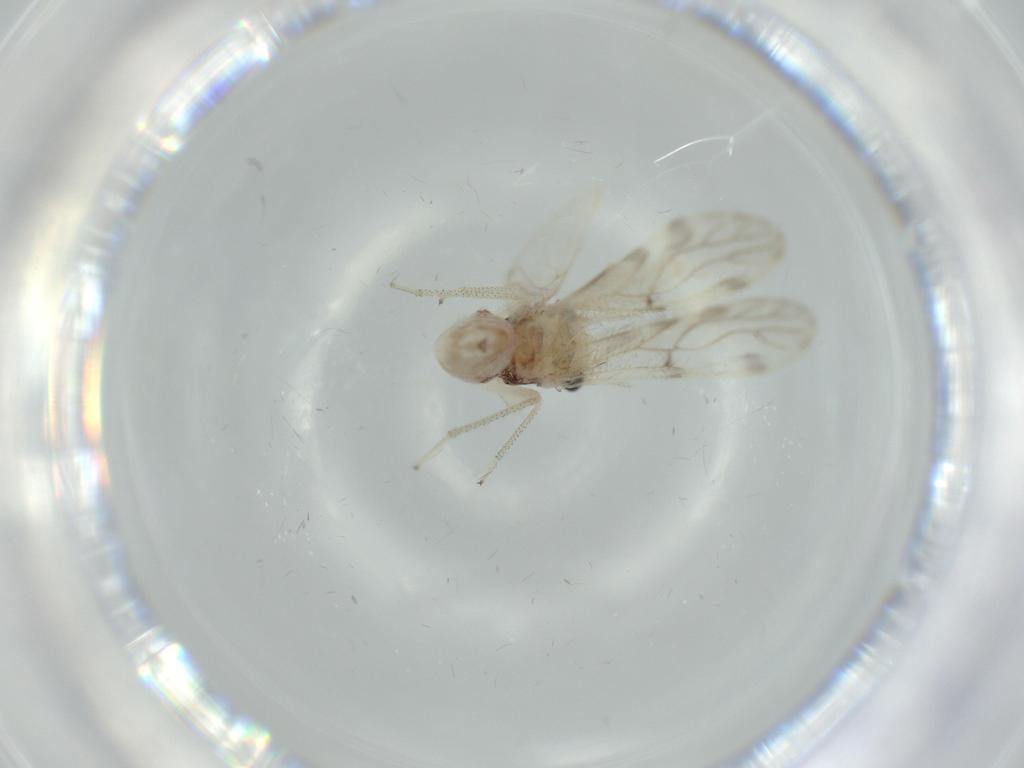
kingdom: Animalia
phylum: Arthropoda
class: Insecta
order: Psocodea
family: Pseudocaeciliidae
